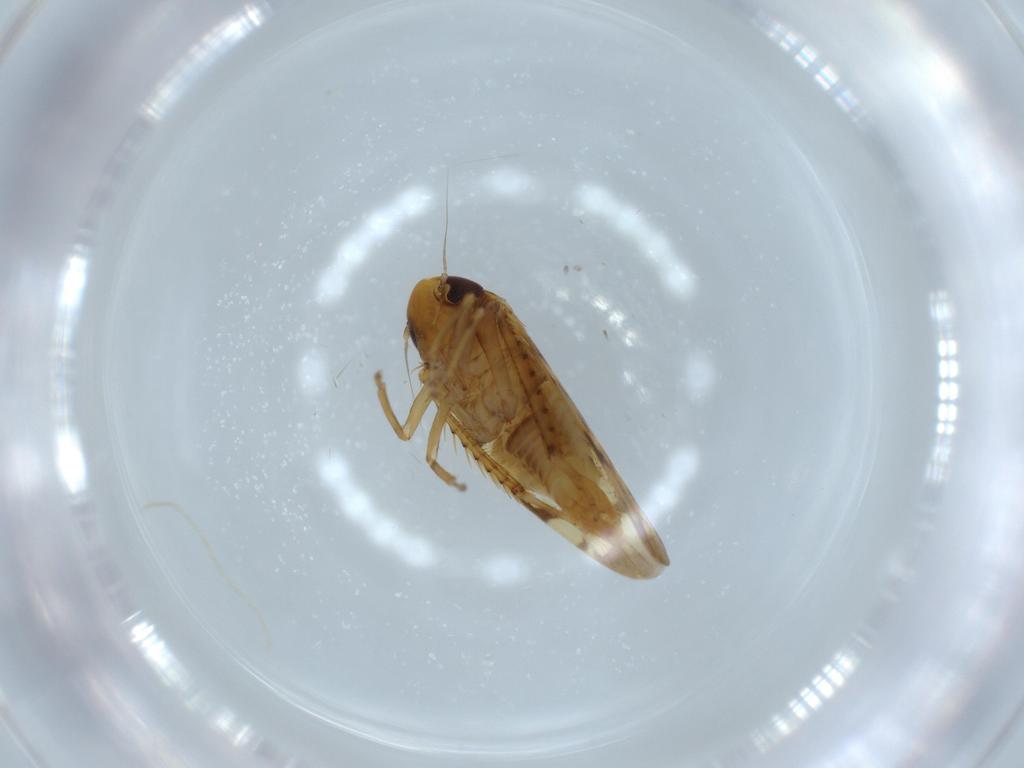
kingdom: Animalia
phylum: Arthropoda
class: Insecta
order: Hemiptera
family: Cicadellidae
